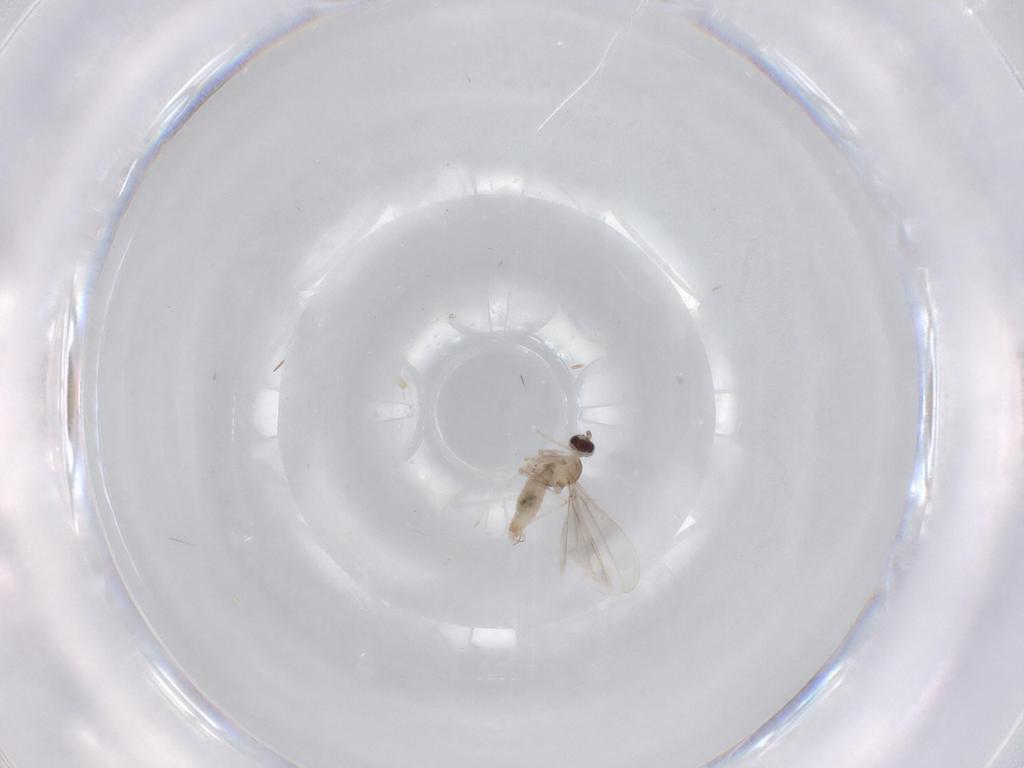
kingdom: Animalia
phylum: Arthropoda
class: Insecta
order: Diptera
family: Cecidomyiidae
